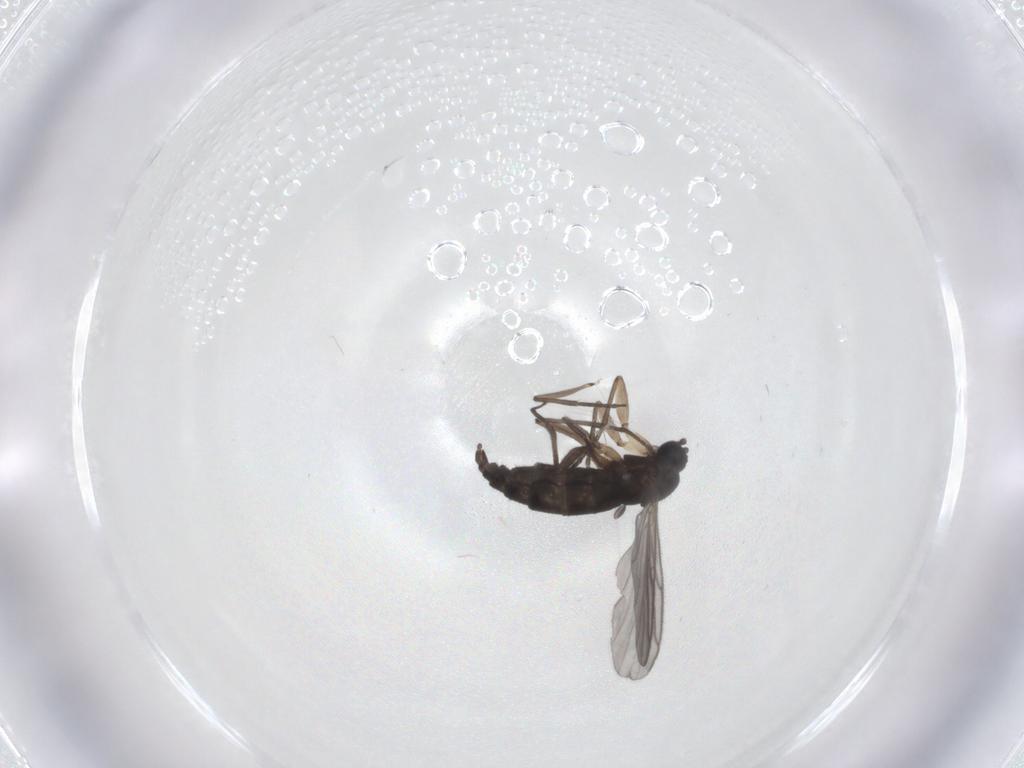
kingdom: Animalia
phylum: Arthropoda
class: Insecta
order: Diptera
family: Sciaridae
